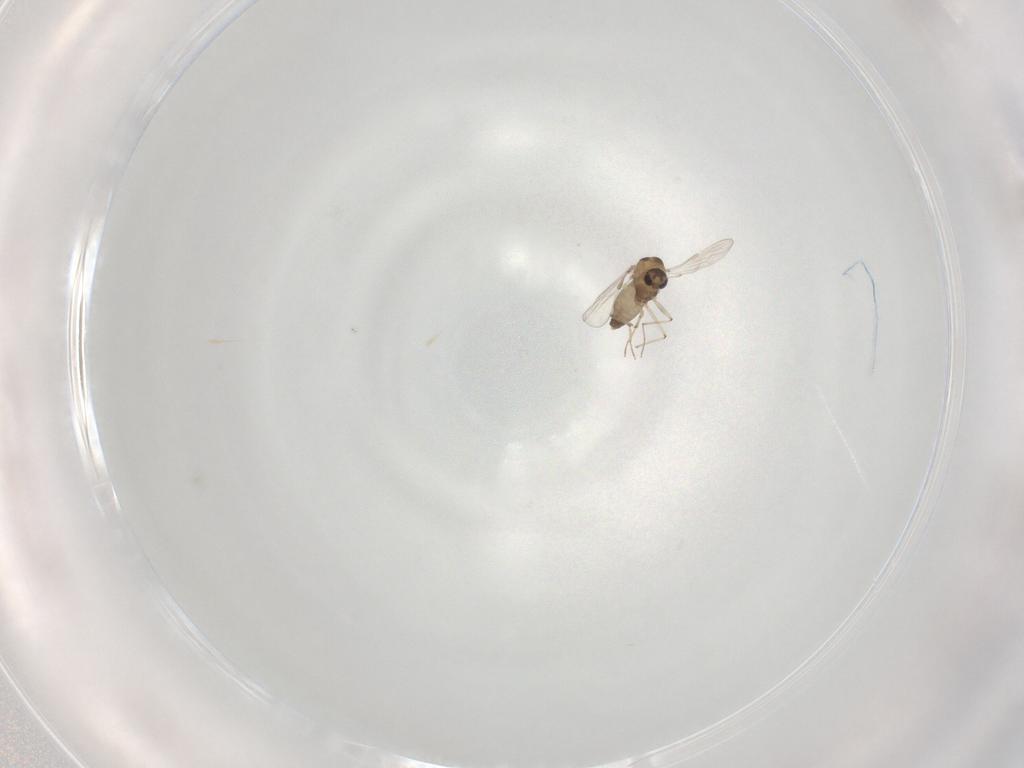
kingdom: Animalia
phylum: Arthropoda
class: Insecta
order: Diptera
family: Chironomidae
